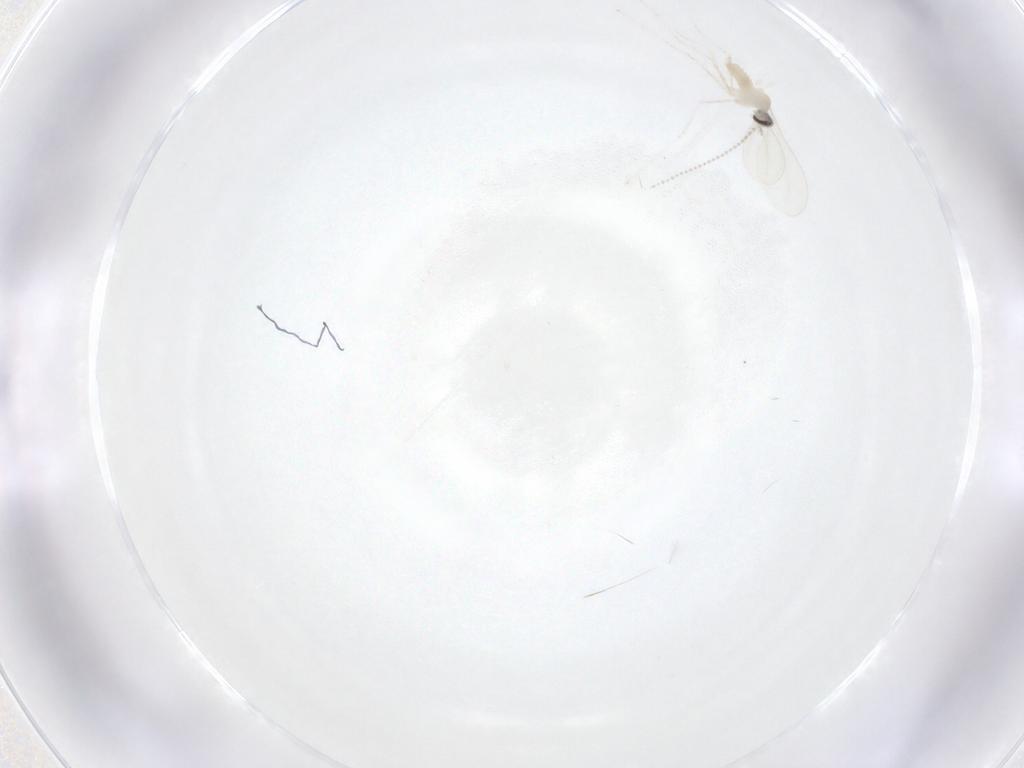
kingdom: Animalia
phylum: Arthropoda
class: Insecta
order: Diptera
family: Cecidomyiidae
